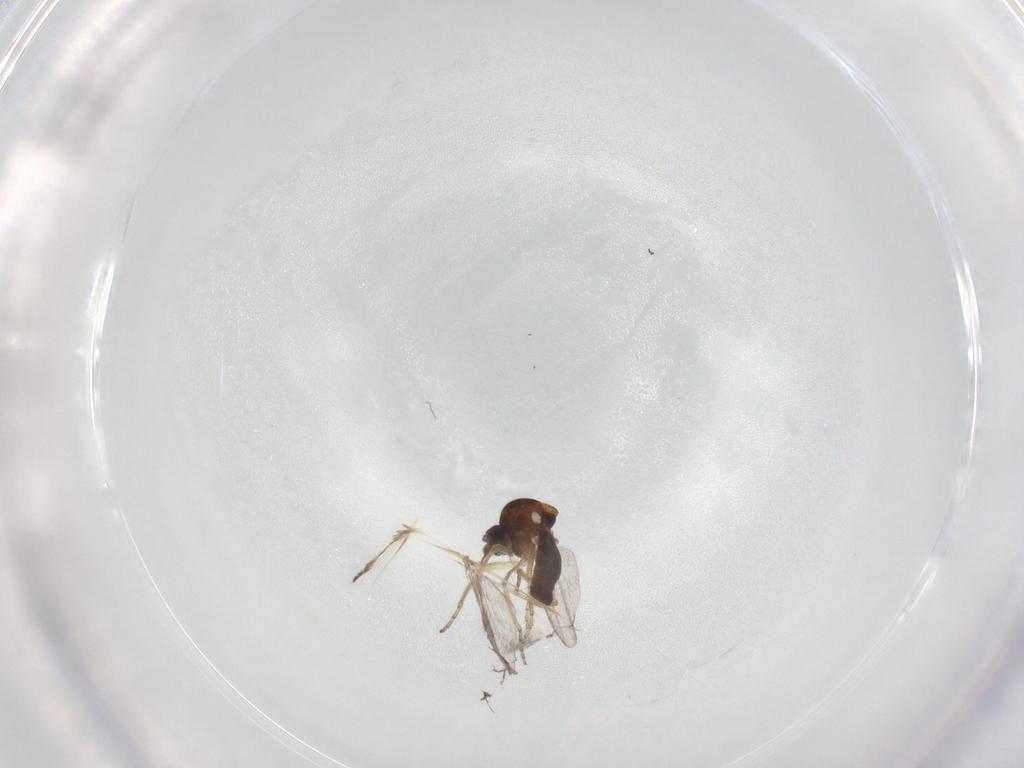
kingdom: Animalia
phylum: Arthropoda
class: Insecta
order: Diptera
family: Ceratopogonidae
